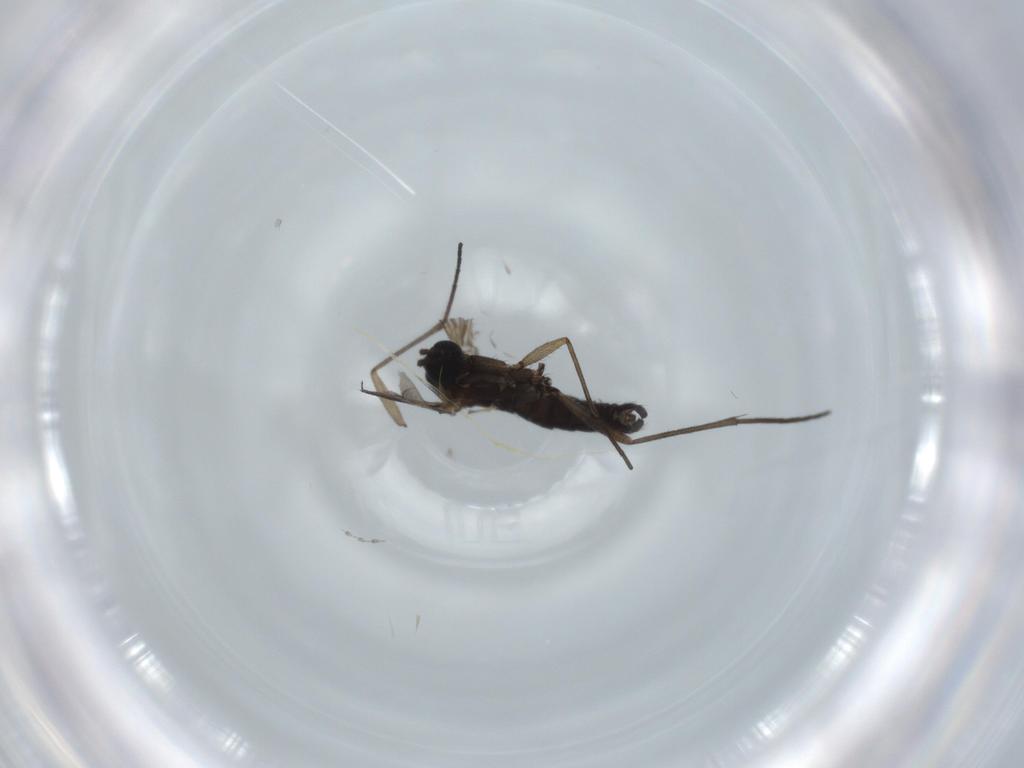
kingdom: Animalia
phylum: Arthropoda
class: Insecta
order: Diptera
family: Sciaridae
